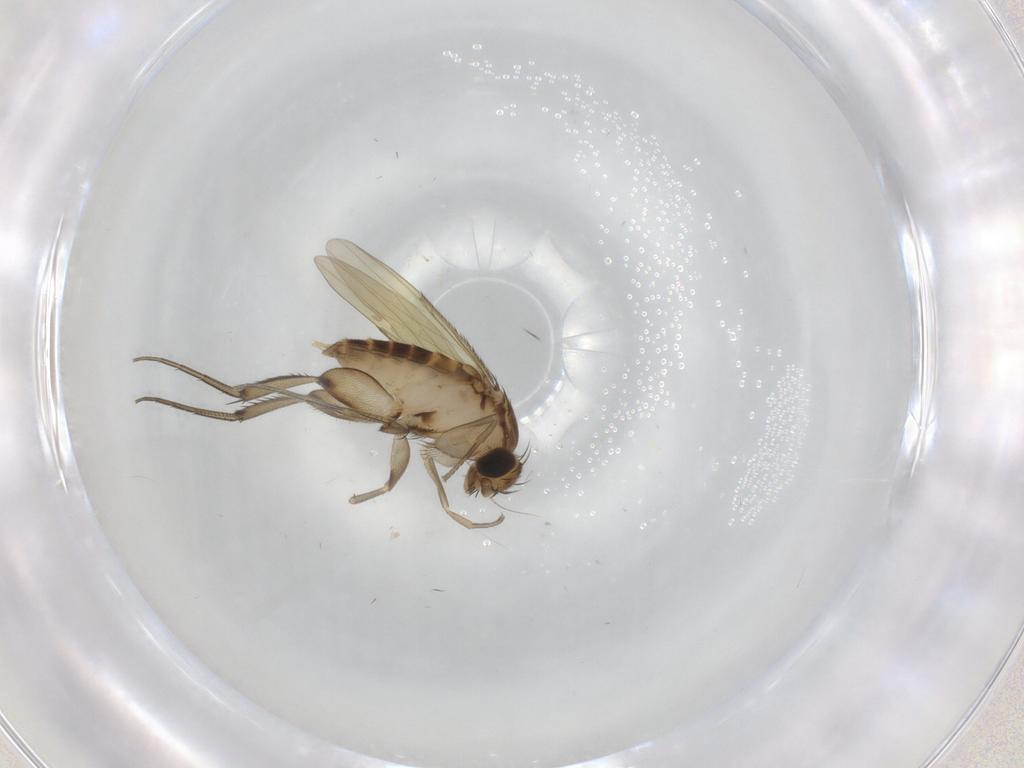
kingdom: Animalia
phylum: Arthropoda
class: Insecta
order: Diptera
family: Phoridae
